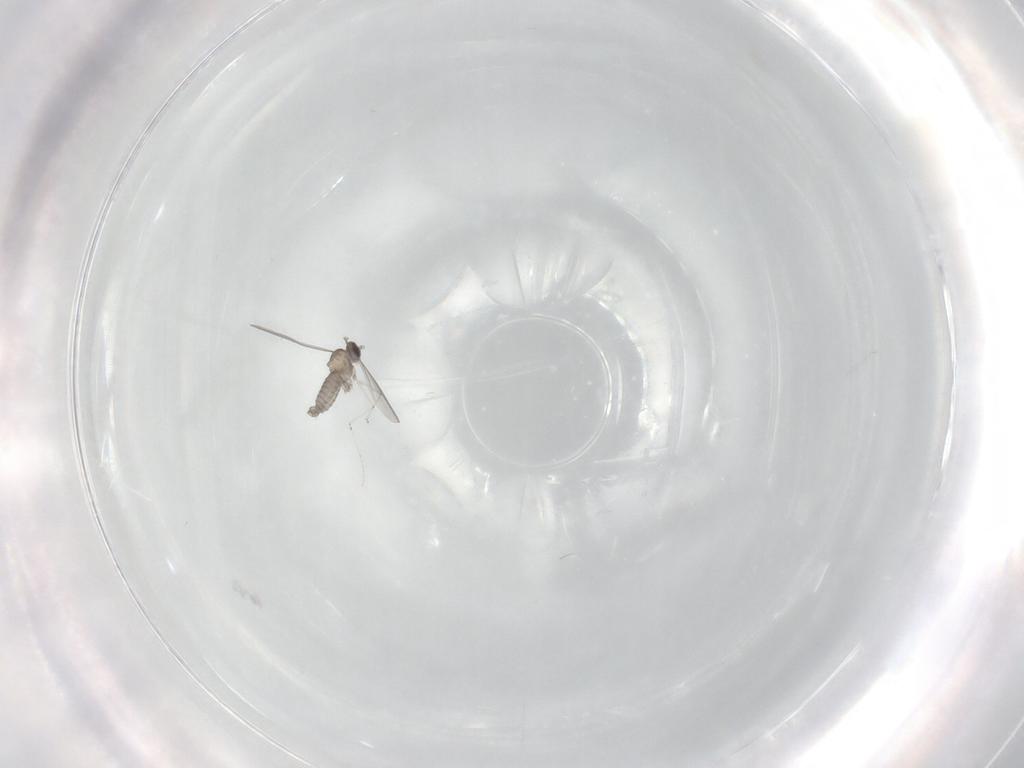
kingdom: Animalia
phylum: Arthropoda
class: Insecta
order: Diptera
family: Cecidomyiidae
